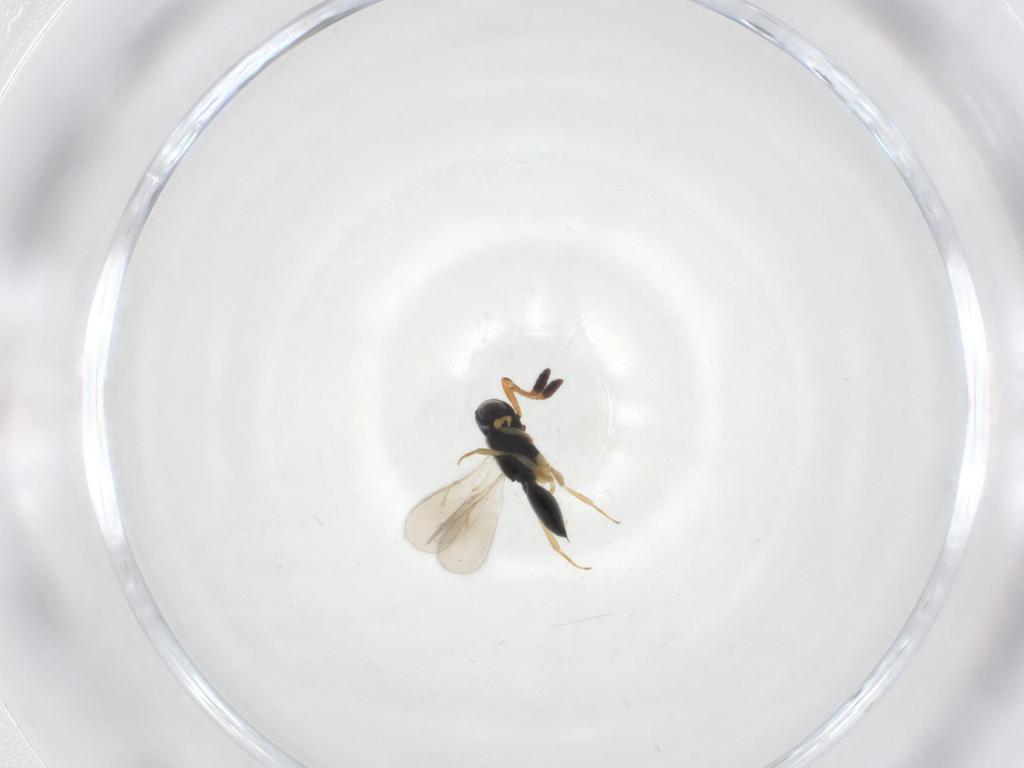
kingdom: Animalia
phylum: Arthropoda
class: Insecta
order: Hymenoptera
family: Scelionidae
